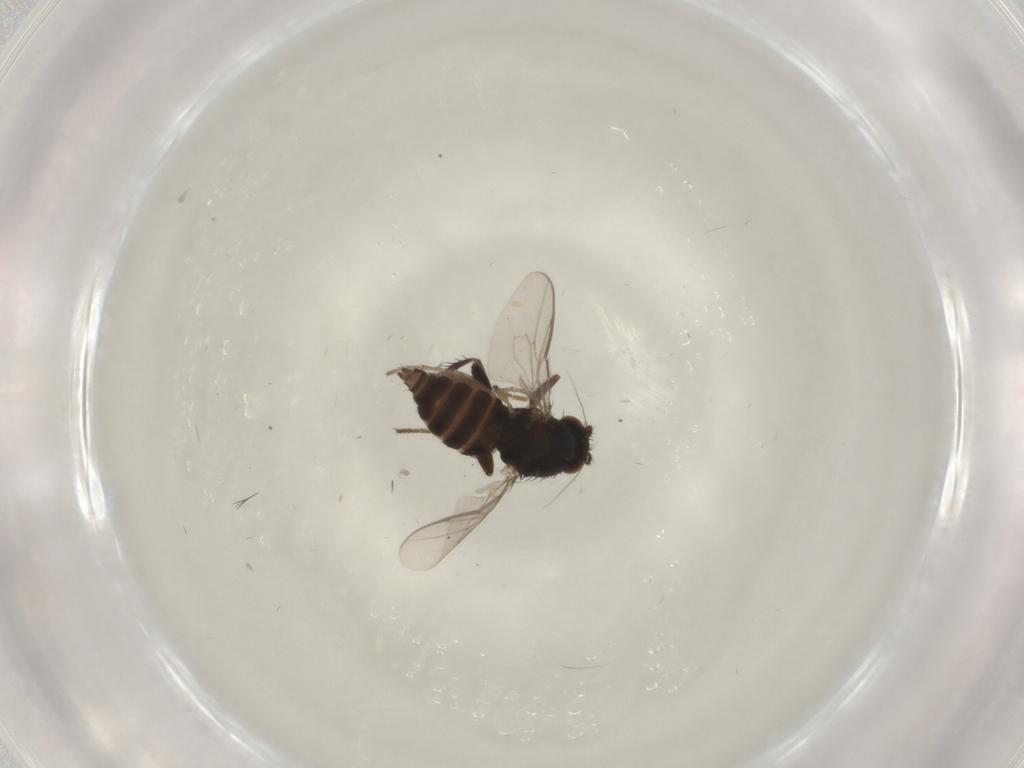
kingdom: Animalia
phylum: Arthropoda
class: Insecta
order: Diptera
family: Sphaeroceridae
